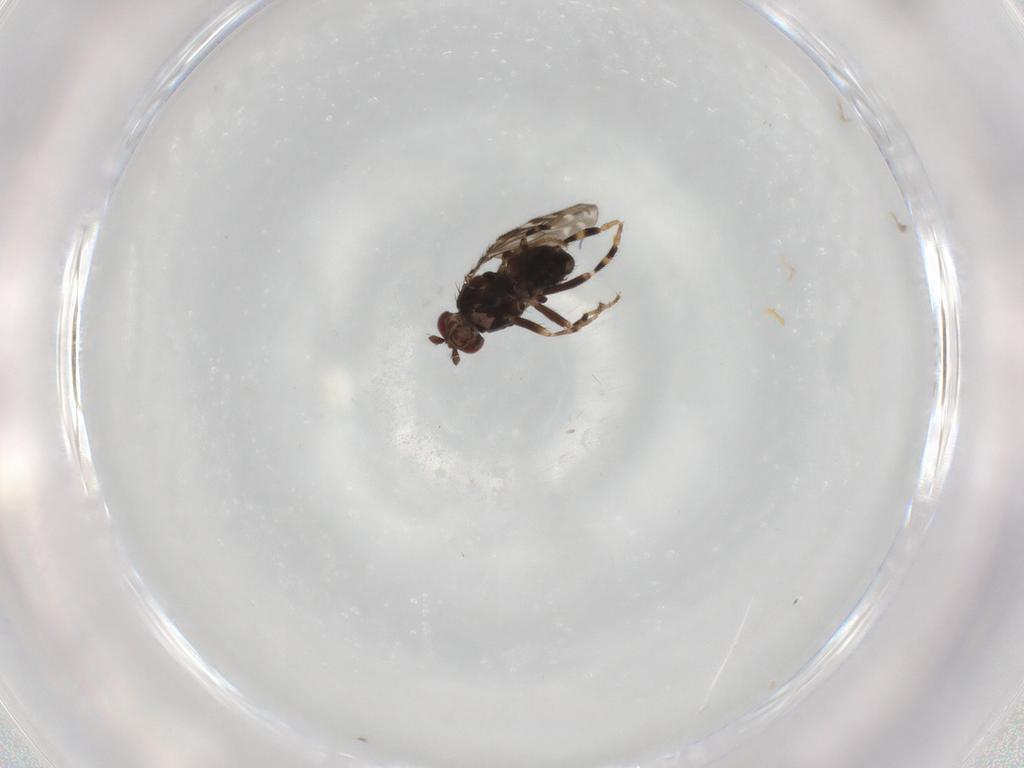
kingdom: Animalia
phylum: Arthropoda
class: Insecta
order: Diptera
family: Sphaeroceridae
